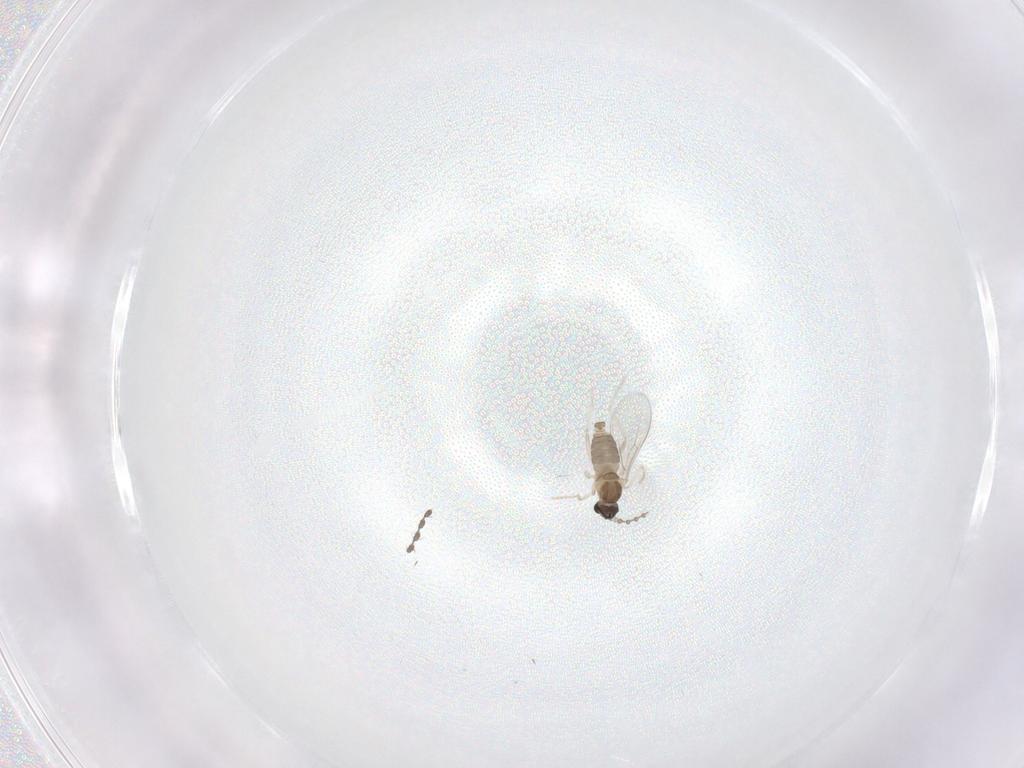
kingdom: Animalia
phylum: Arthropoda
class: Insecta
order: Diptera
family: Cecidomyiidae
